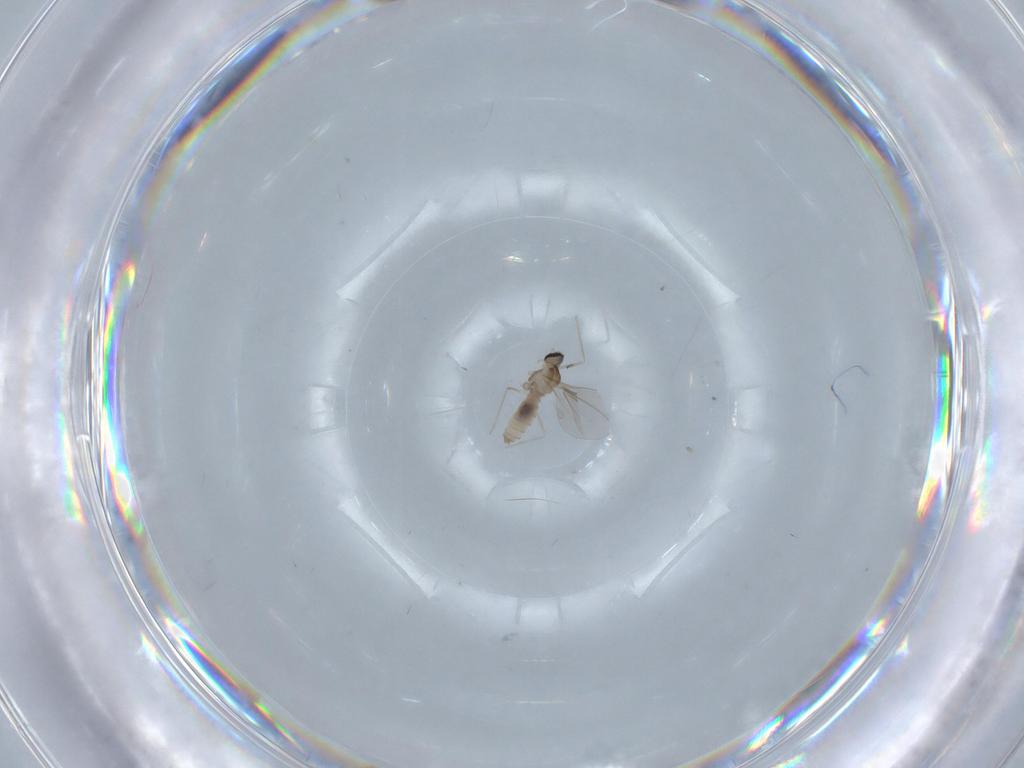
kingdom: Animalia
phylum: Arthropoda
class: Insecta
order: Diptera
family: Cecidomyiidae
